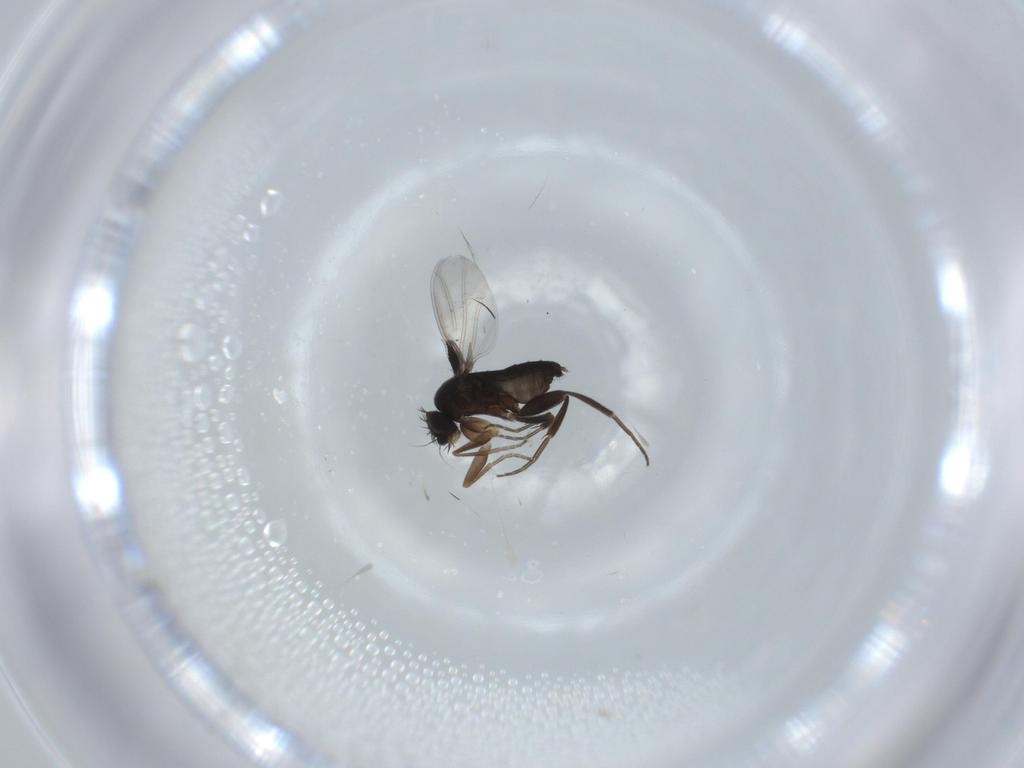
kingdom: Animalia
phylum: Arthropoda
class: Insecta
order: Diptera
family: Phoridae
